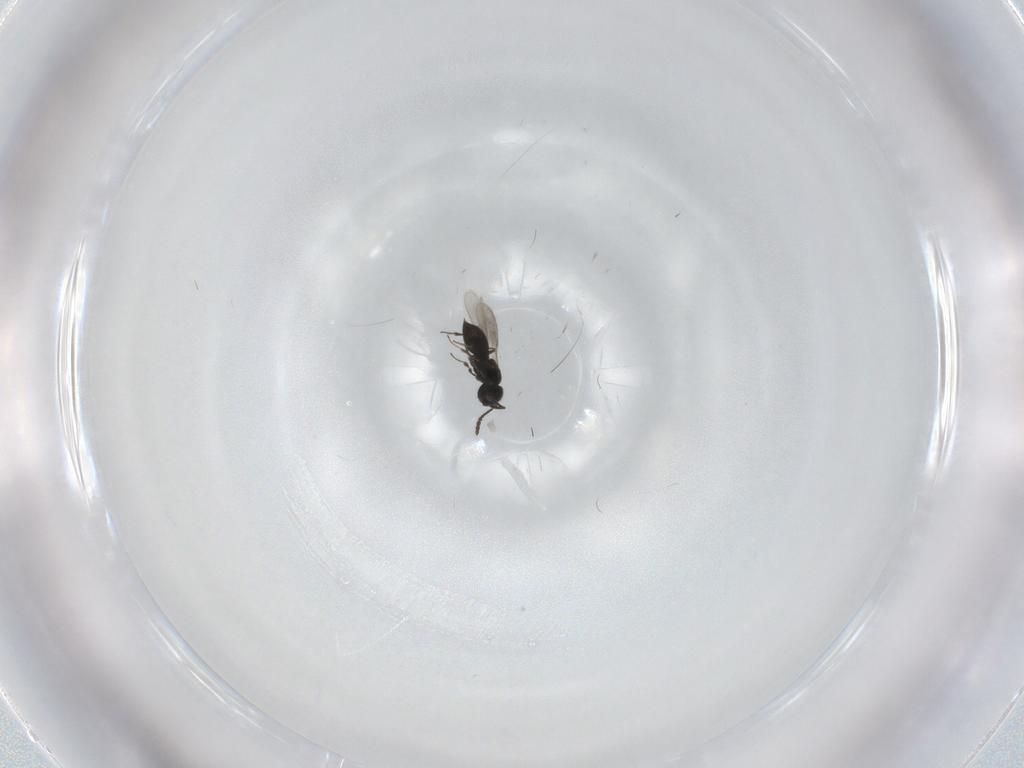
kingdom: Animalia
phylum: Arthropoda
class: Insecta
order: Hymenoptera
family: Scelionidae
